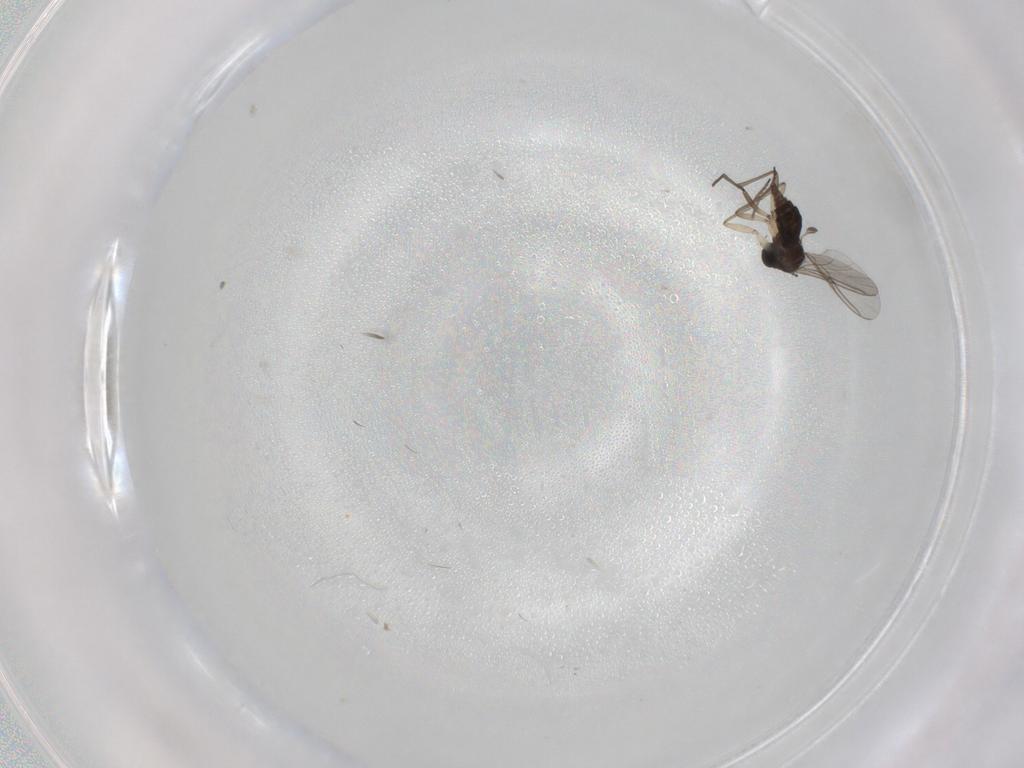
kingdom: Animalia
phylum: Arthropoda
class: Insecta
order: Diptera
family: Sciaridae
